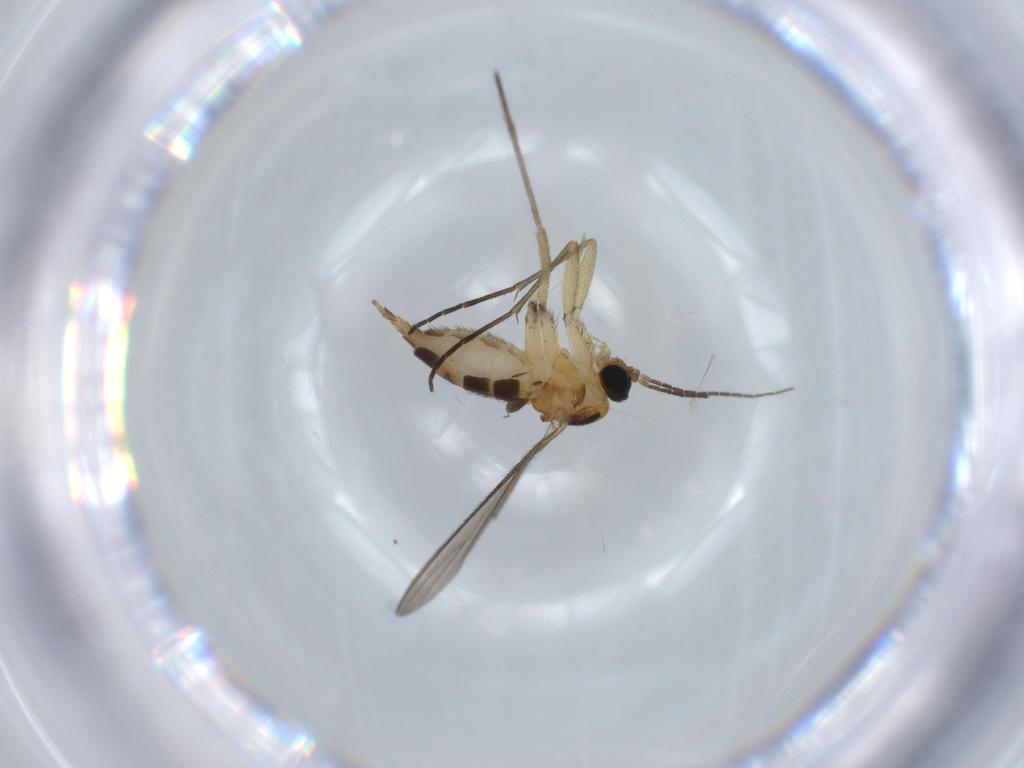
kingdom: Animalia
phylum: Arthropoda
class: Insecta
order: Diptera
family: Sciaridae
